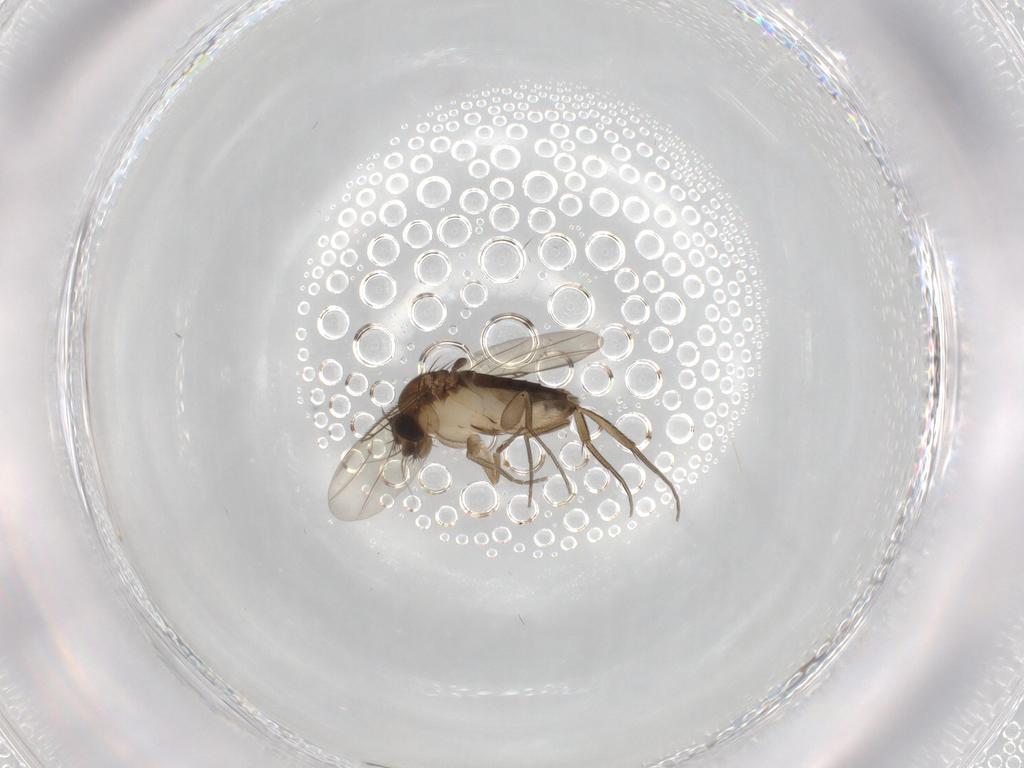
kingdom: Animalia
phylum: Arthropoda
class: Insecta
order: Diptera
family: Phoridae
